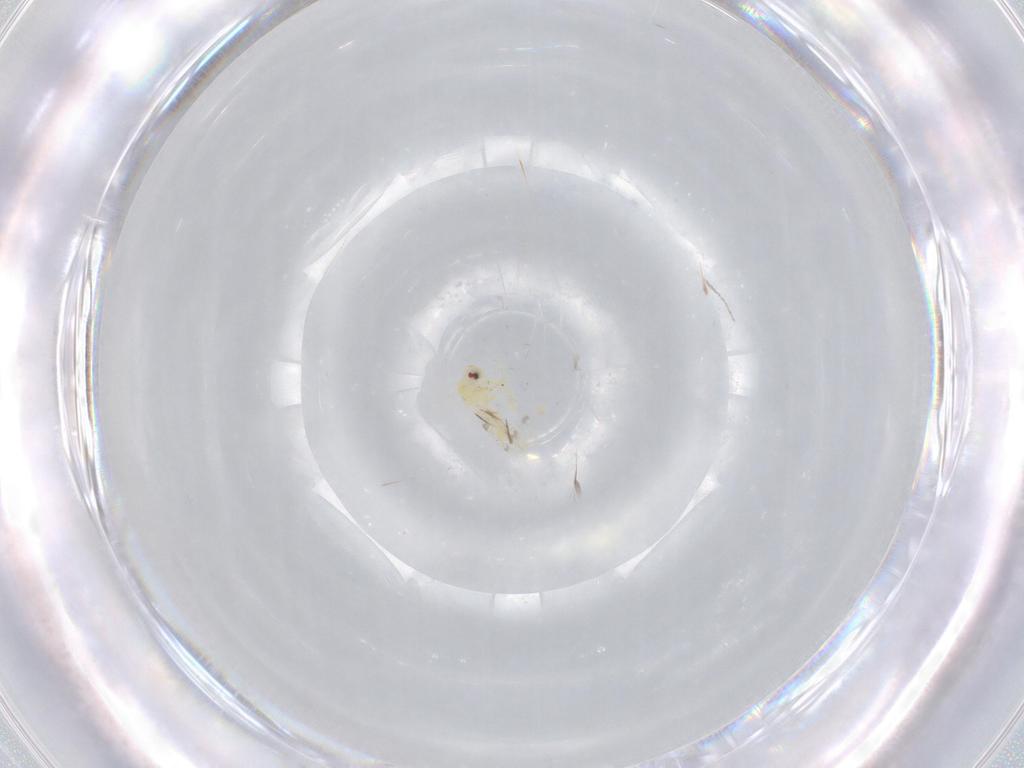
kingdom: Animalia
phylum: Arthropoda
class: Insecta
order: Hemiptera
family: Aleyrodidae
